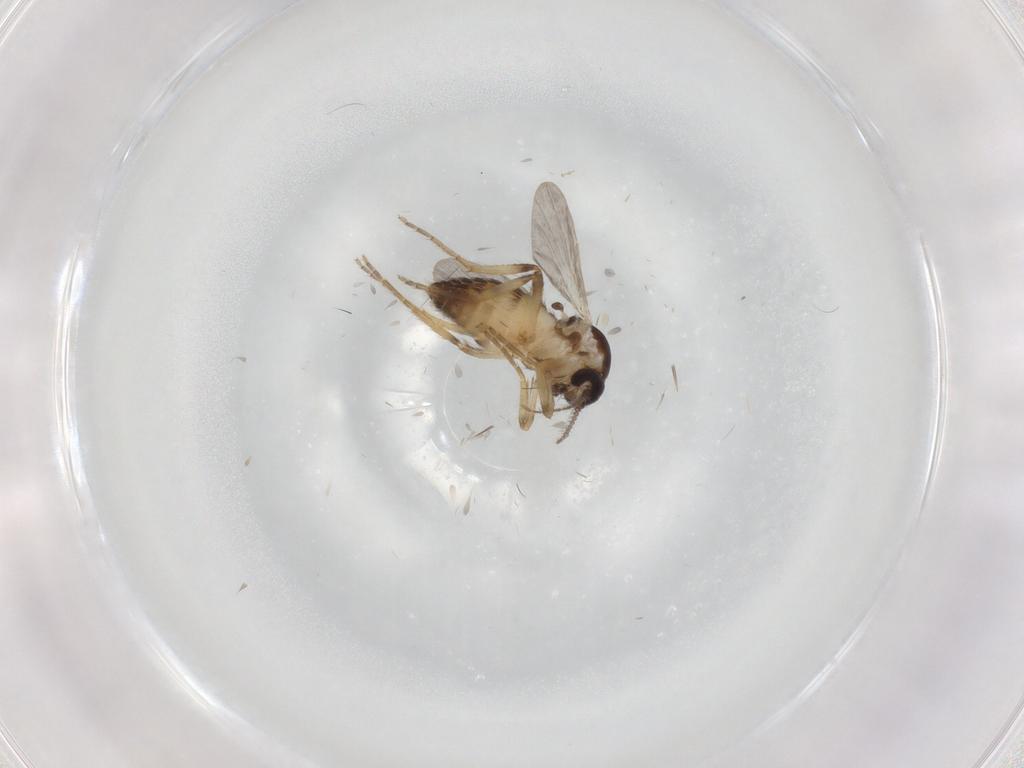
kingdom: Animalia
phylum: Arthropoda
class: Insecta
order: Diptera
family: Ceratopogonidae
